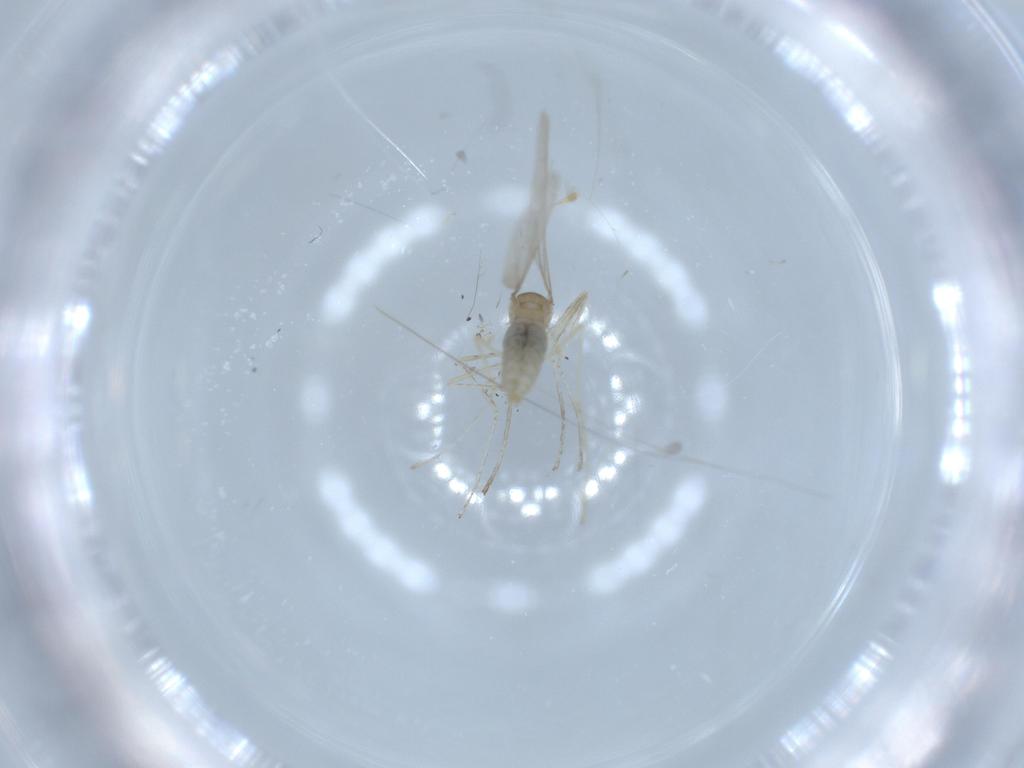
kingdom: Animalia
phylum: Arthropoda
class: Insecta
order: Diptera
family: Cecidomyiidae
